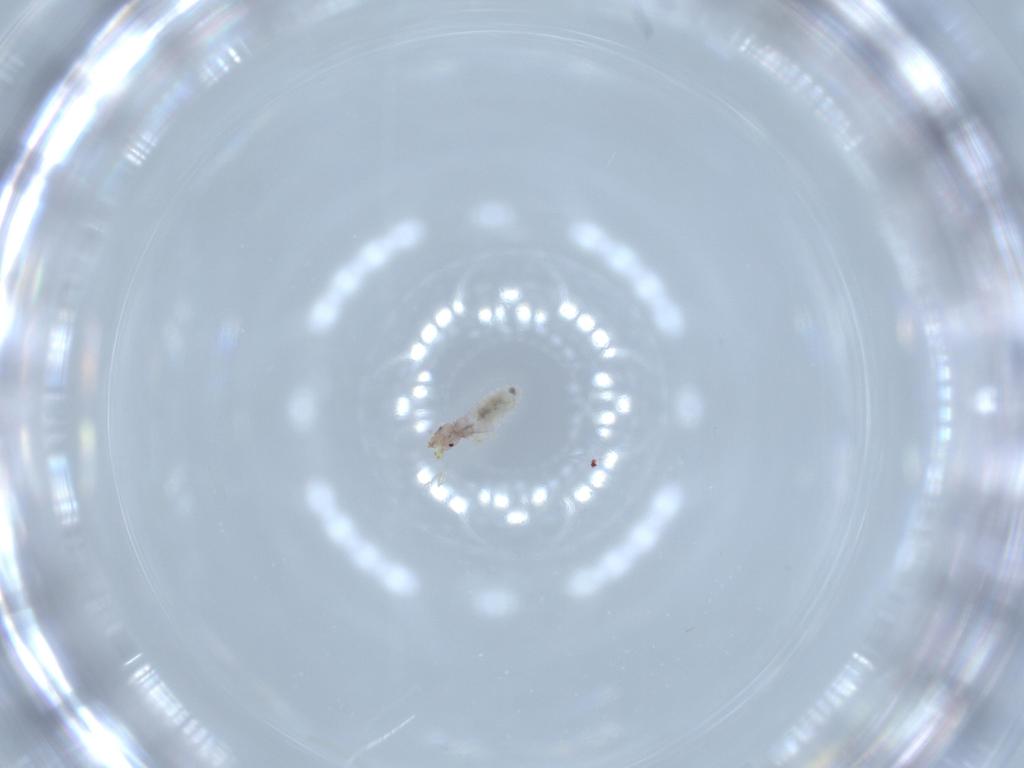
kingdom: Animalia
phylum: Arthropoda
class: Insecta
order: Psocodea
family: Liposcelididae
